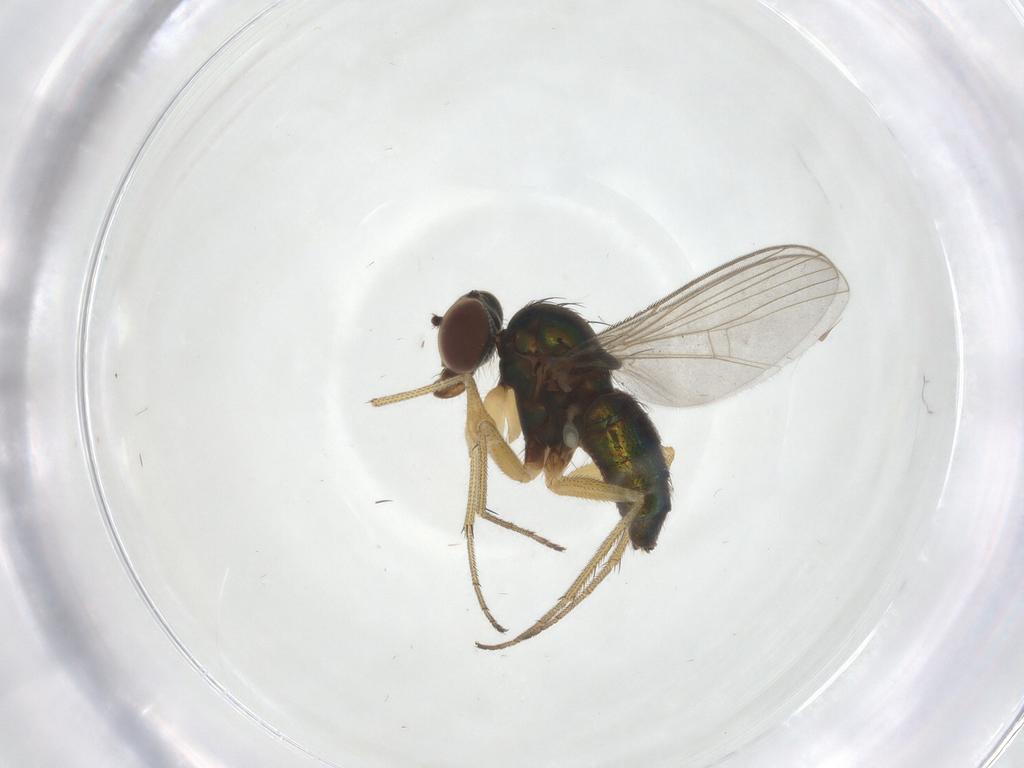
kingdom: Animalia
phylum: Arthropoda
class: Insecta
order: Diptera
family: Dolichopodidae
